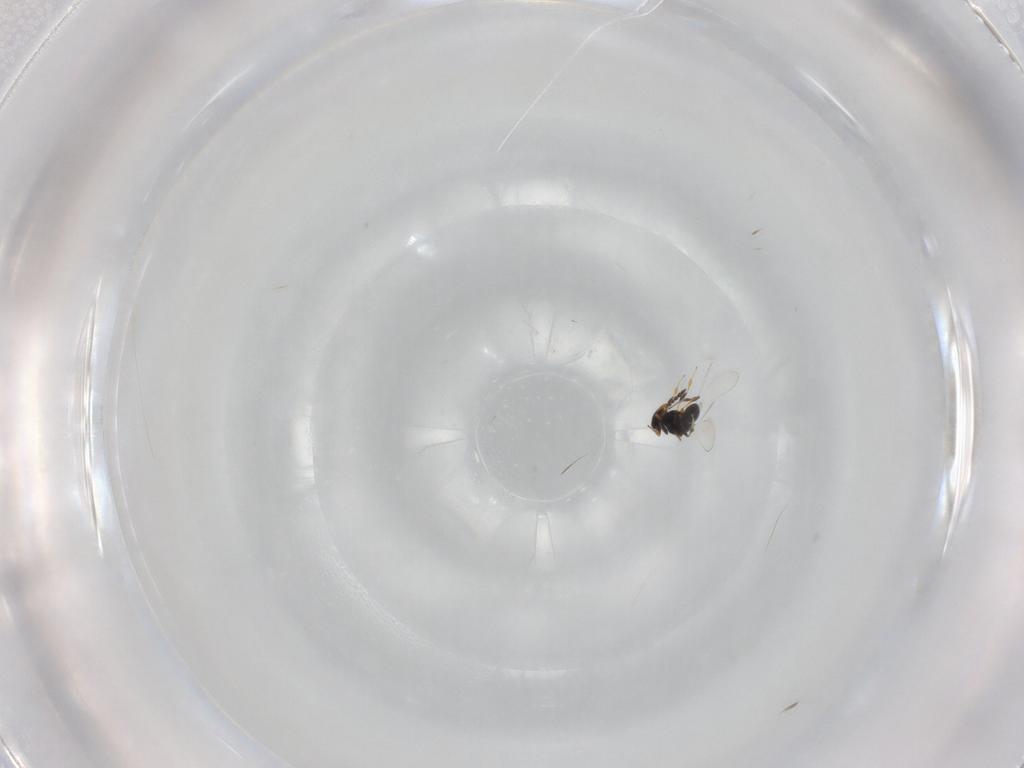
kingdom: Animalia
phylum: Arthropoda
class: Insecta
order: Hymenoptera
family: Platygastridae
